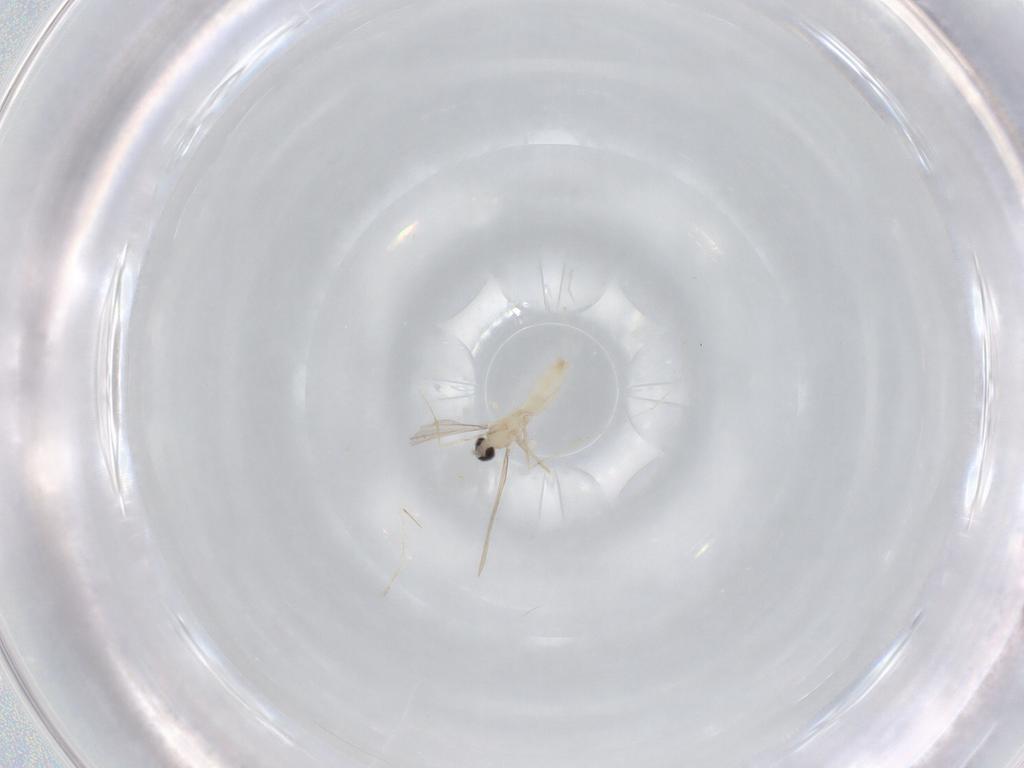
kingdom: Animalia
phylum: Arthropoda
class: Insecta
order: Diptera
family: Cecidomyiidae
